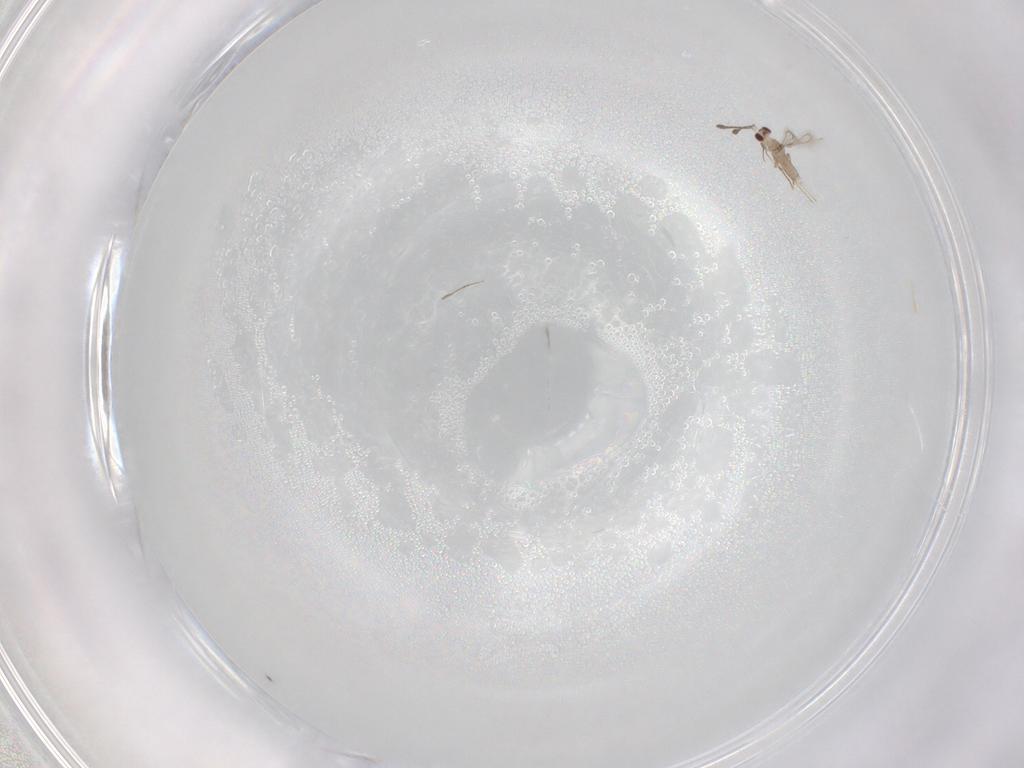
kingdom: Animalia
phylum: Arthropoda
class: Insecta
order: Hymenoptera
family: Mymaridae
